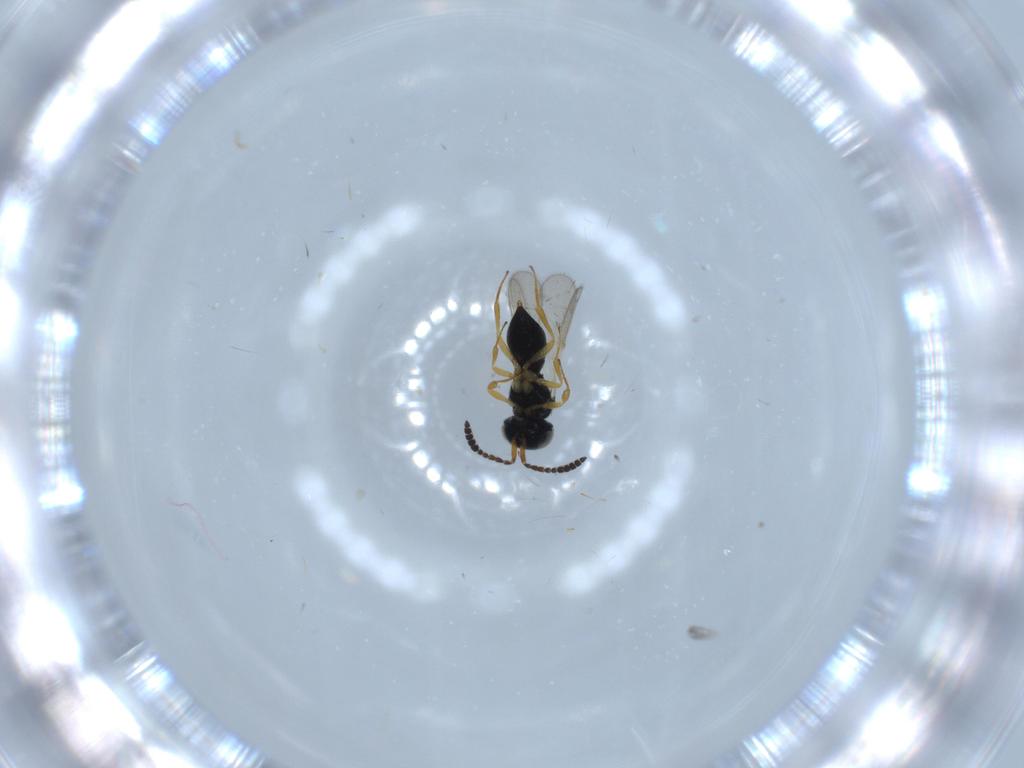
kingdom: Animalia
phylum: Arthropoda
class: Insecta
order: Hymenoptera
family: Scelionidae
